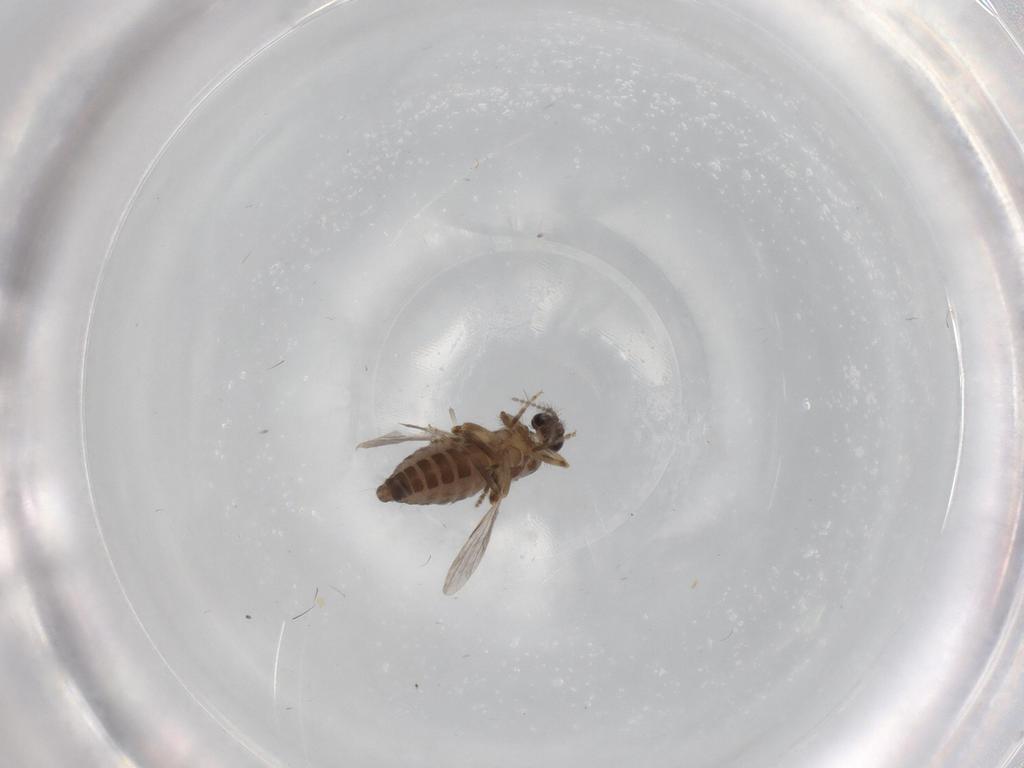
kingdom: Animalia
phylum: Arthropoda
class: Insecta
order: Diptera
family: Ceratopogonidae
